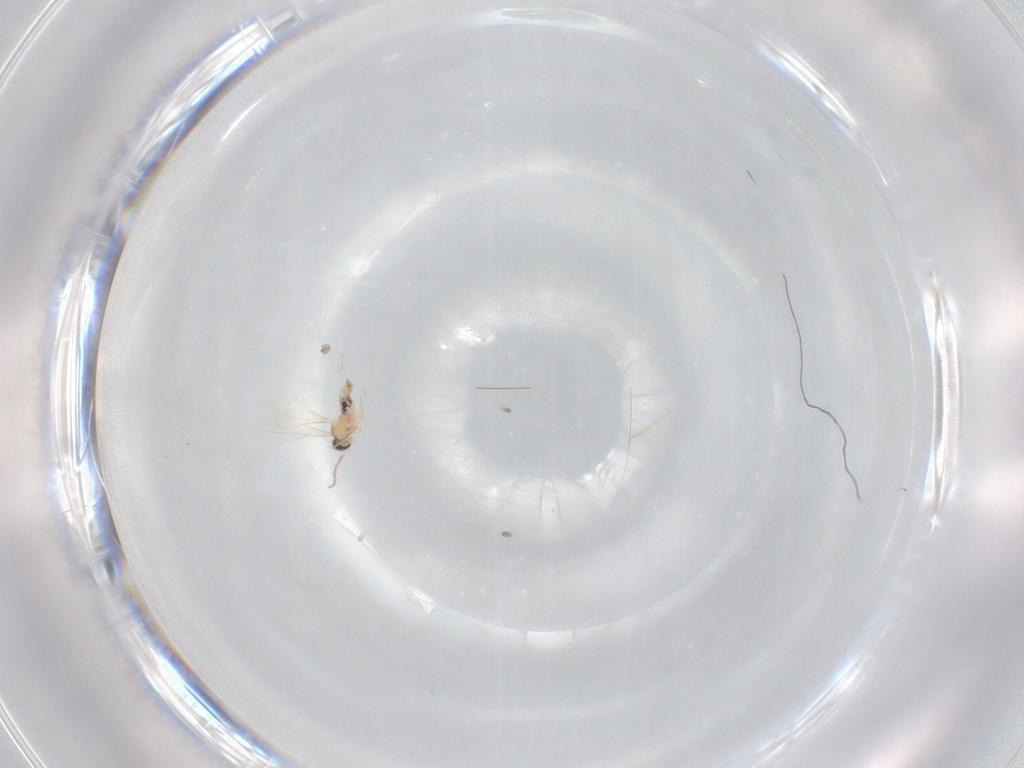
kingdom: Animalia
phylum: Arthropoda
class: Insecta
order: Diptera
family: Cecidomyiidae
